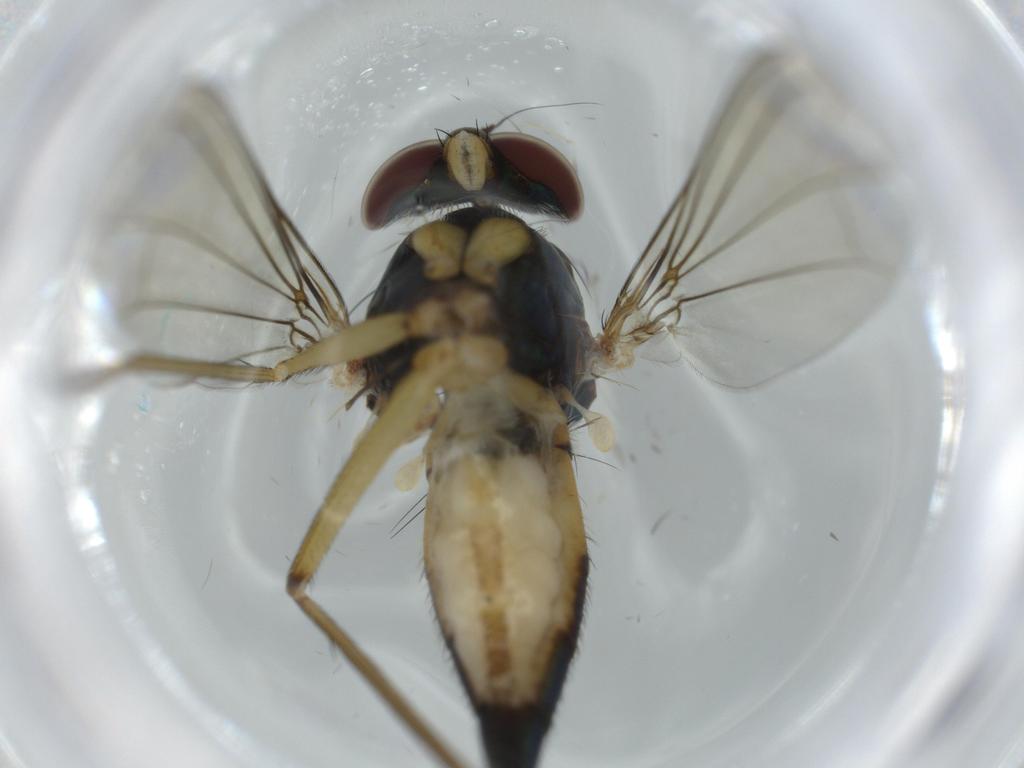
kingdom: Animalia
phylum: Arthropoda
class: Insecta
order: Diptera
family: Dolichopodidae
